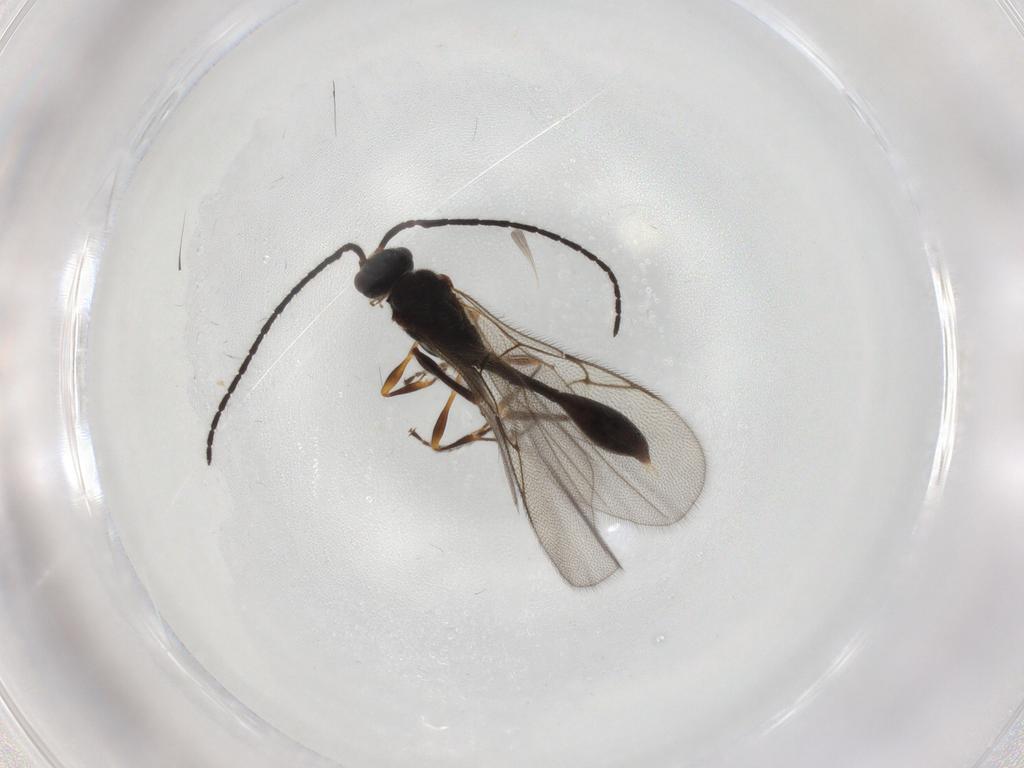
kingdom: Animalia
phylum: Arthropoda
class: Insecta
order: Hymenoptera
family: Diapriidae
